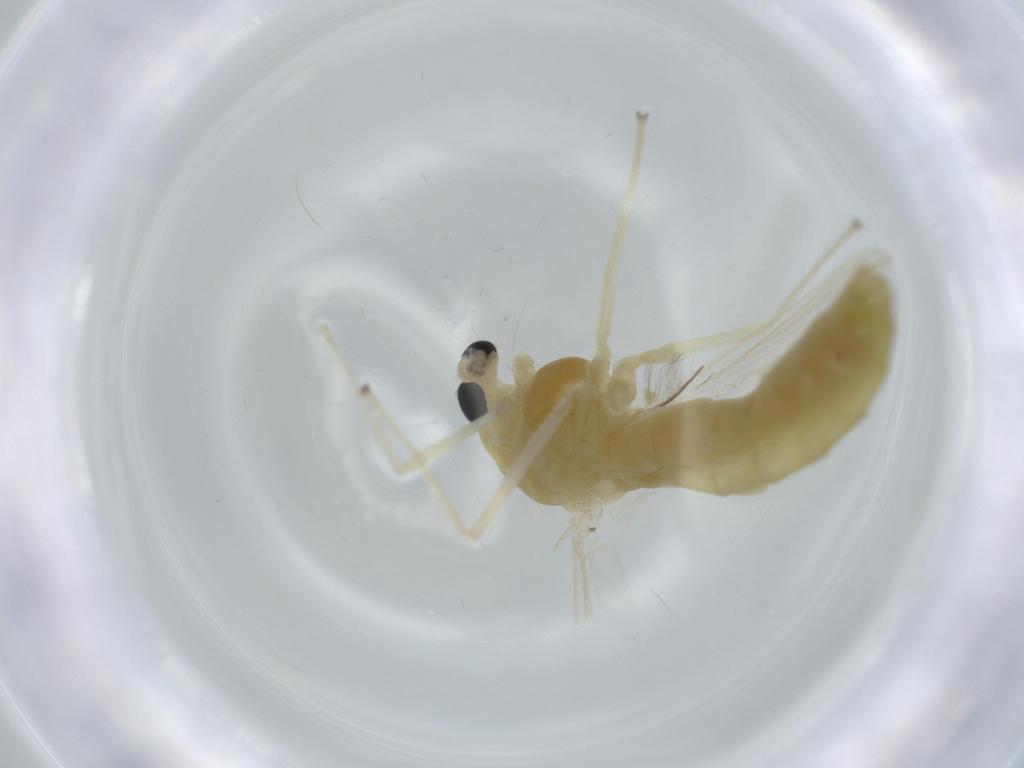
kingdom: Animalia
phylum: Arthropoda
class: Insecta
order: Diptera
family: Chironomidae
